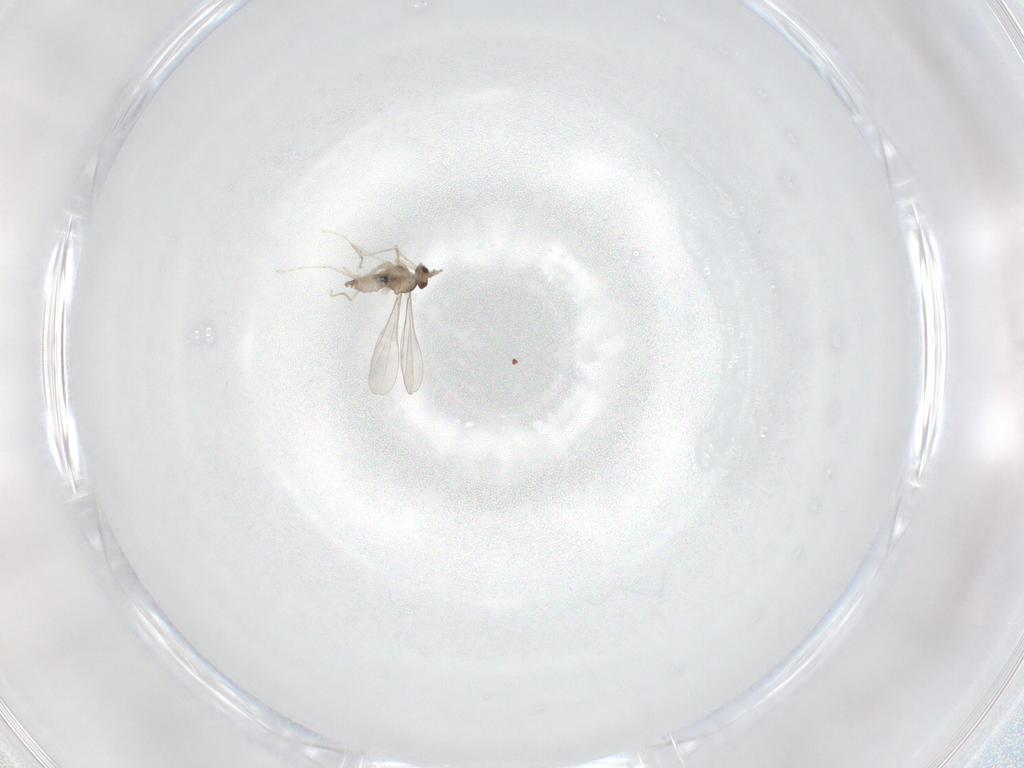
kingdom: Animalia
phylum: Arthropoda
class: Insecta
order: Diptera
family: Cecidomyiidae
